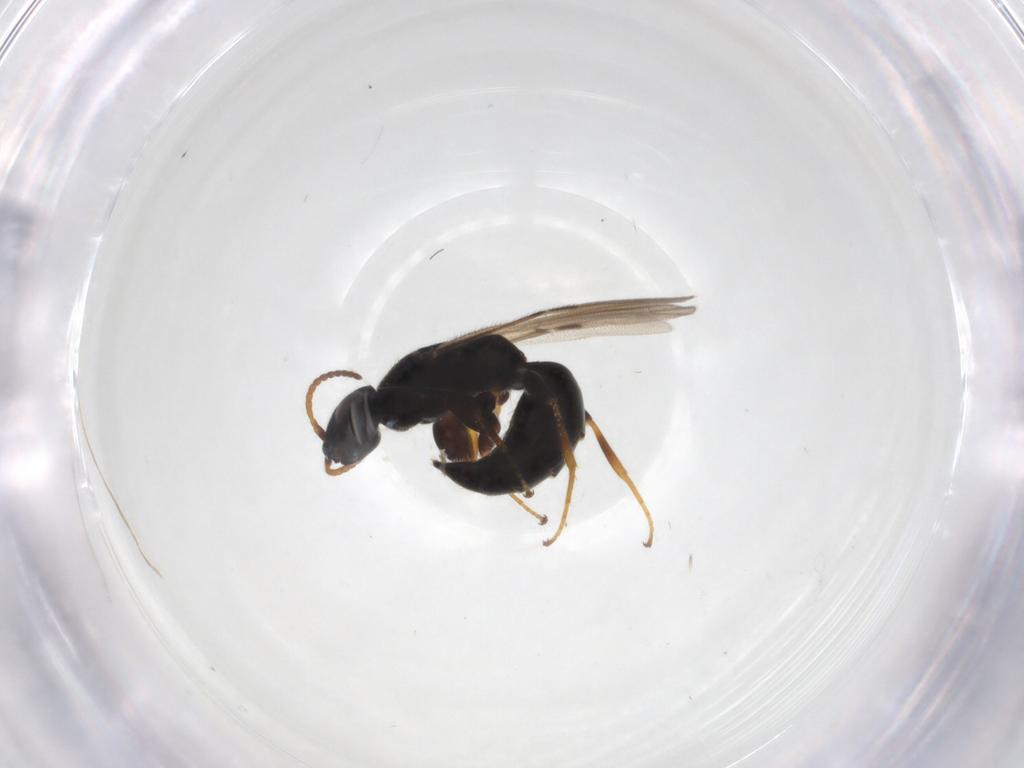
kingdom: Animalia
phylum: Arthropoda
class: Insecta
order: Hymenoptera
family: Bethylidae
